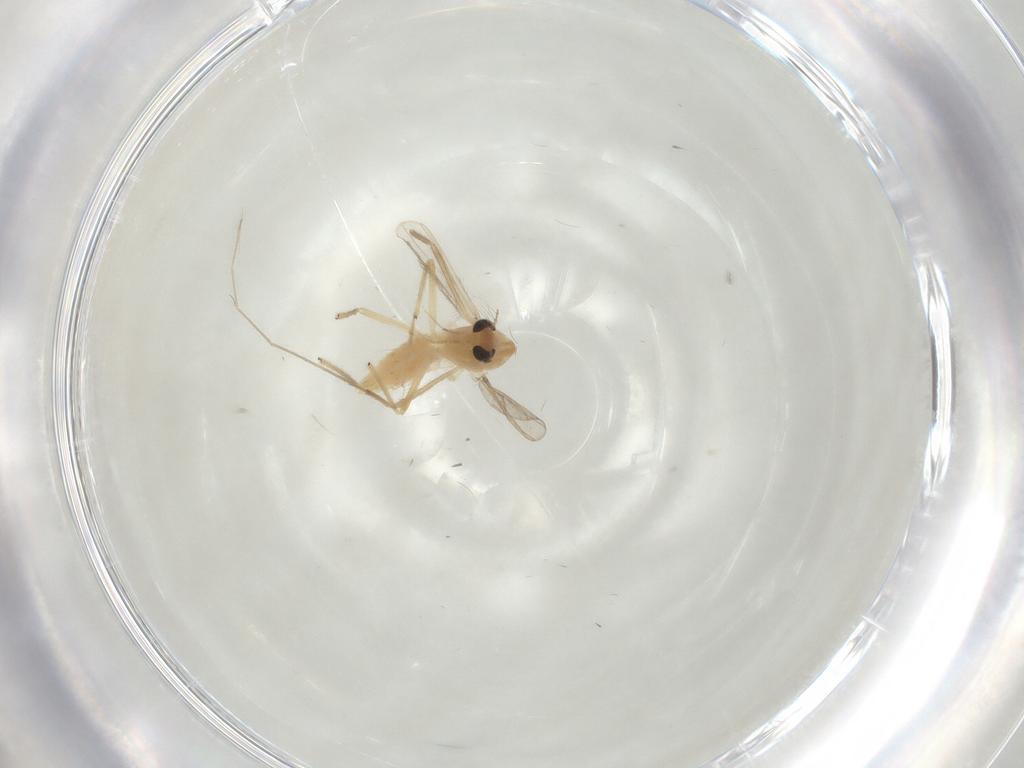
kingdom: Animalia
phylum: Arthropoda
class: Insecta
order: Diptera
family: Chironomidae
